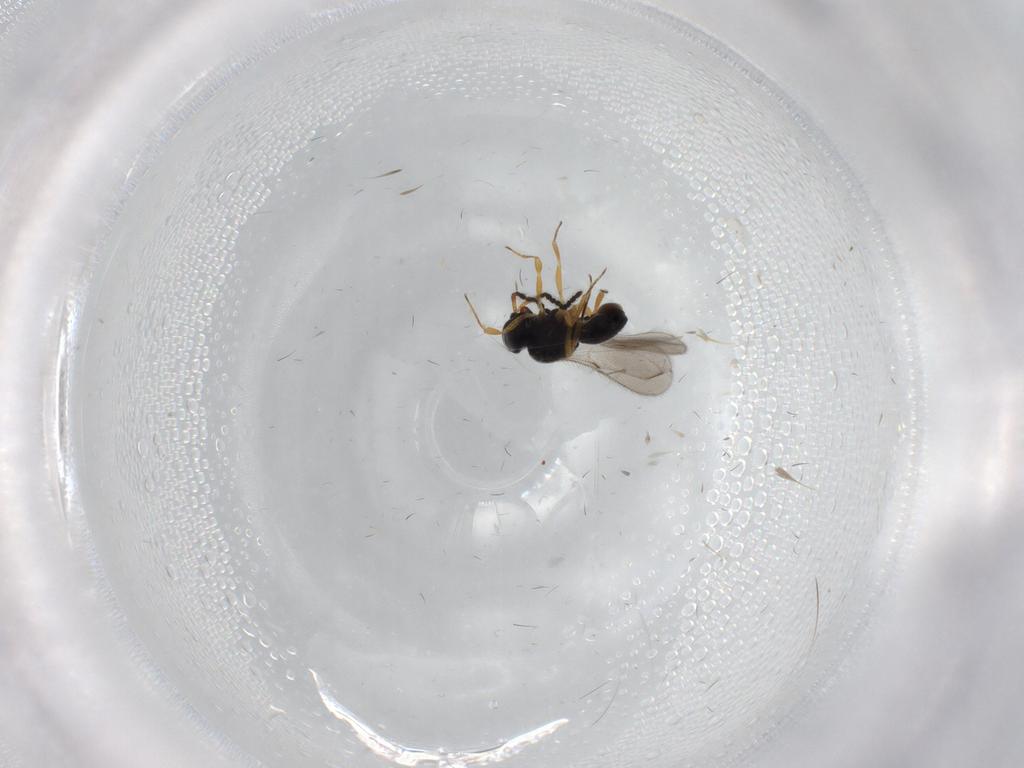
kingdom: Animalia
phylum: Arthropoda
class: Insecta
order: Hymenoptera
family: Scelionidae
